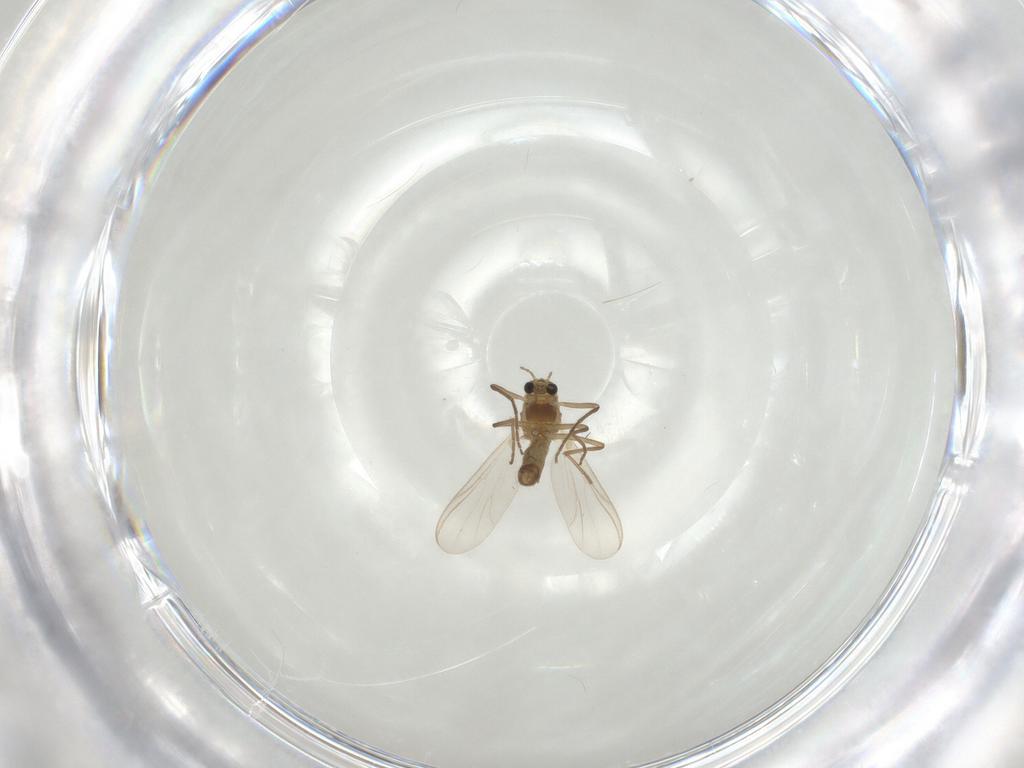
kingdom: Animalia
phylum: Arthropoda
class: Insecta
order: Diptera
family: Chironomidae
